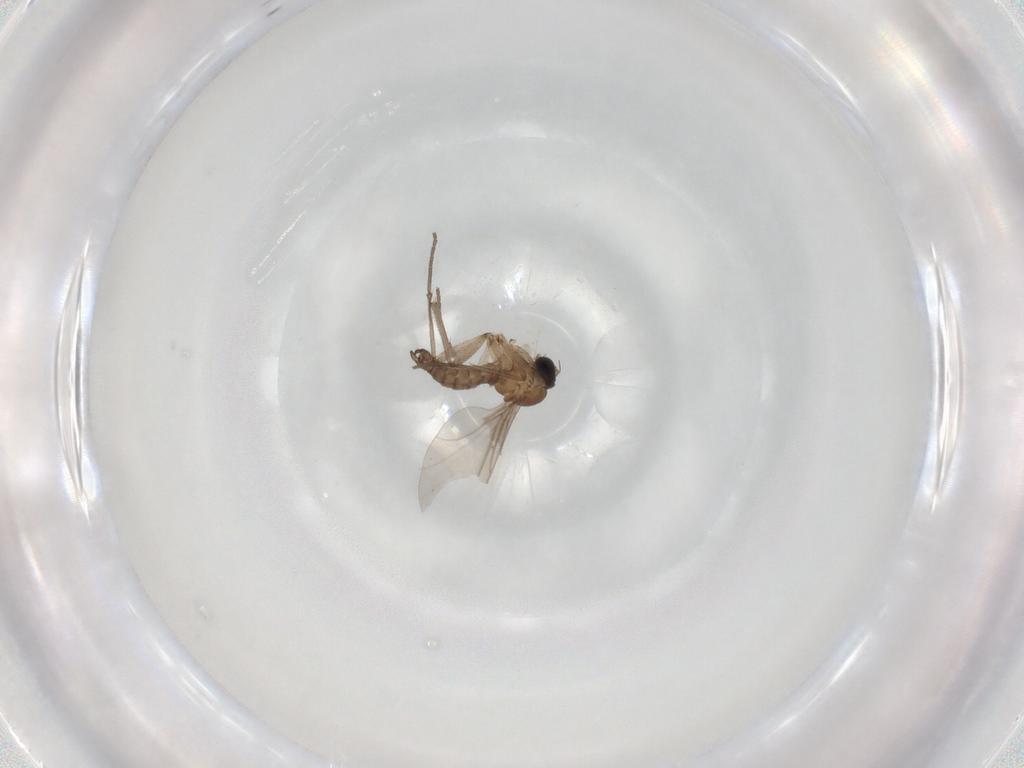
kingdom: Animalia
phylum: Arthropoda
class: Insecta
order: Diptera
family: Sciaridae
